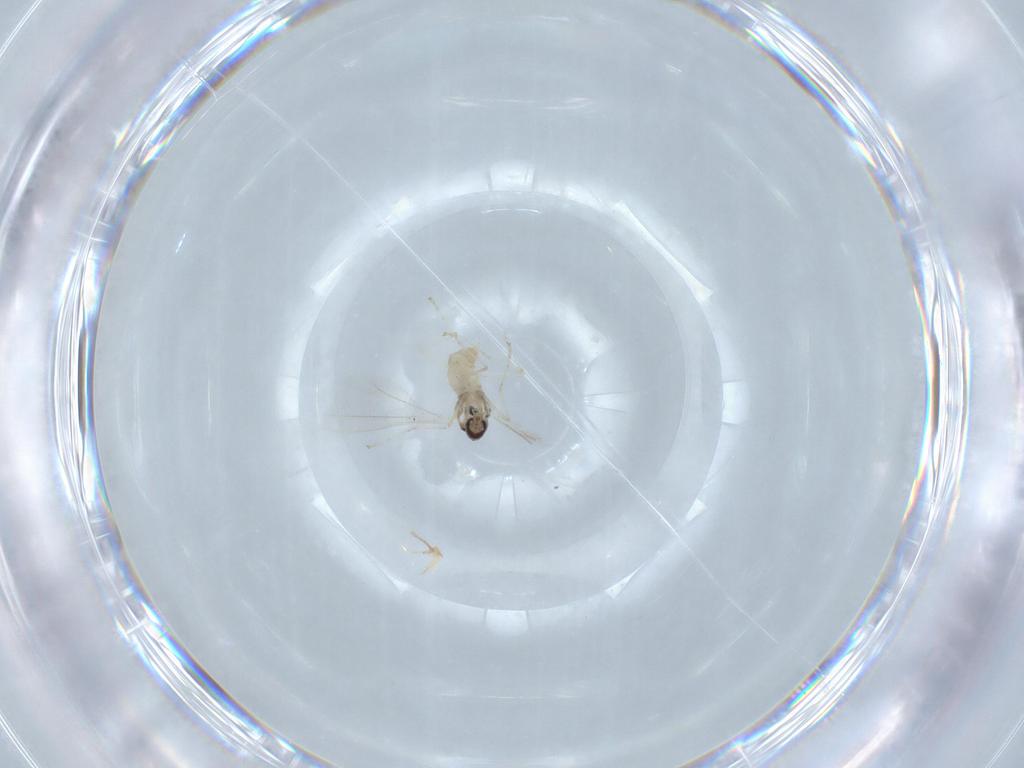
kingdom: Animalia
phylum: Arthropoda
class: Insecta
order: Diptera
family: Cecidomyiidae
